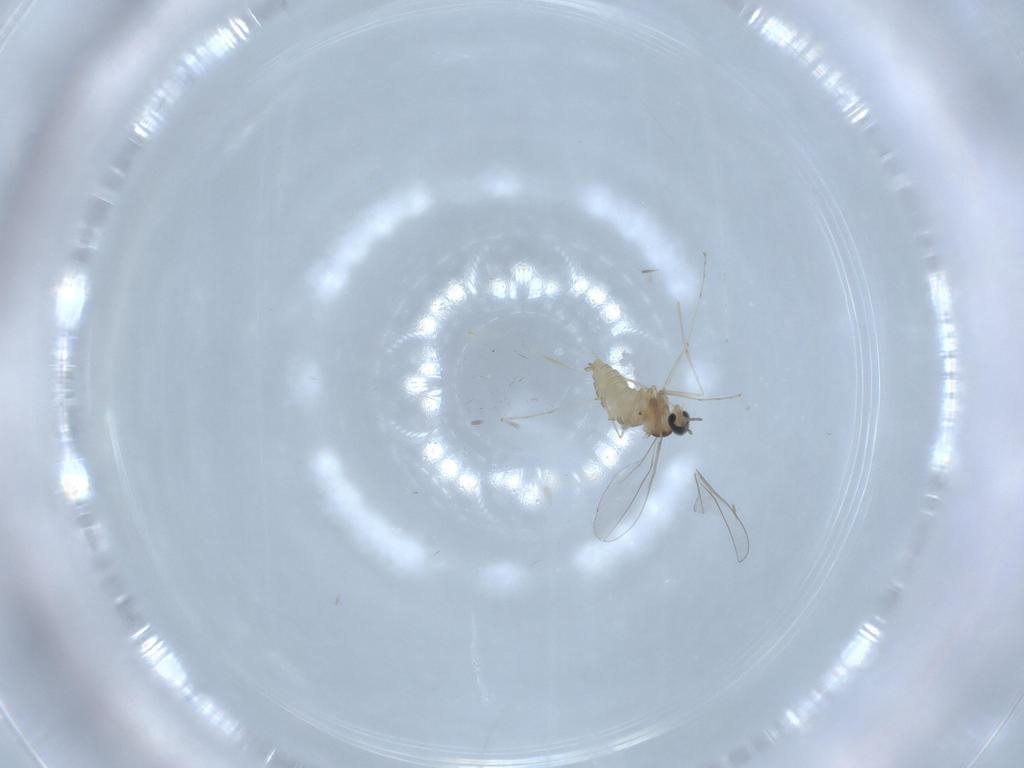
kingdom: Animalia
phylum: Arthropoda
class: Insecta
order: Diptera
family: Cecidomyiidae
